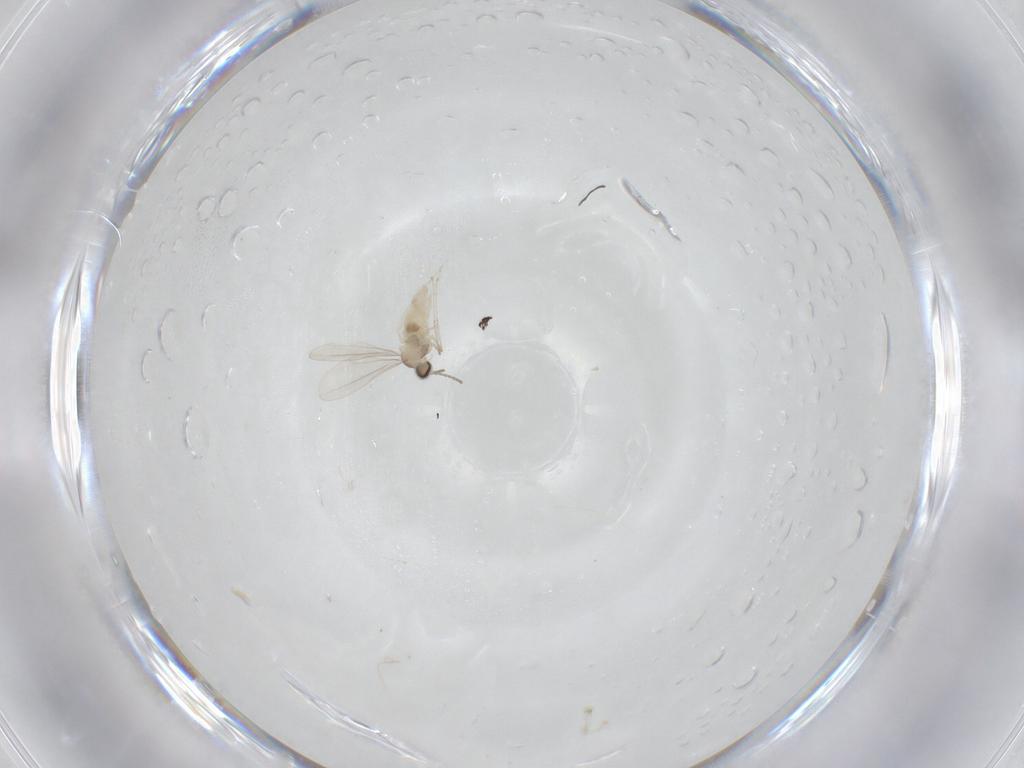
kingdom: Animalia
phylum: Arthropoda
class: Insecta
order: Diptera
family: Cecidomyiidae
